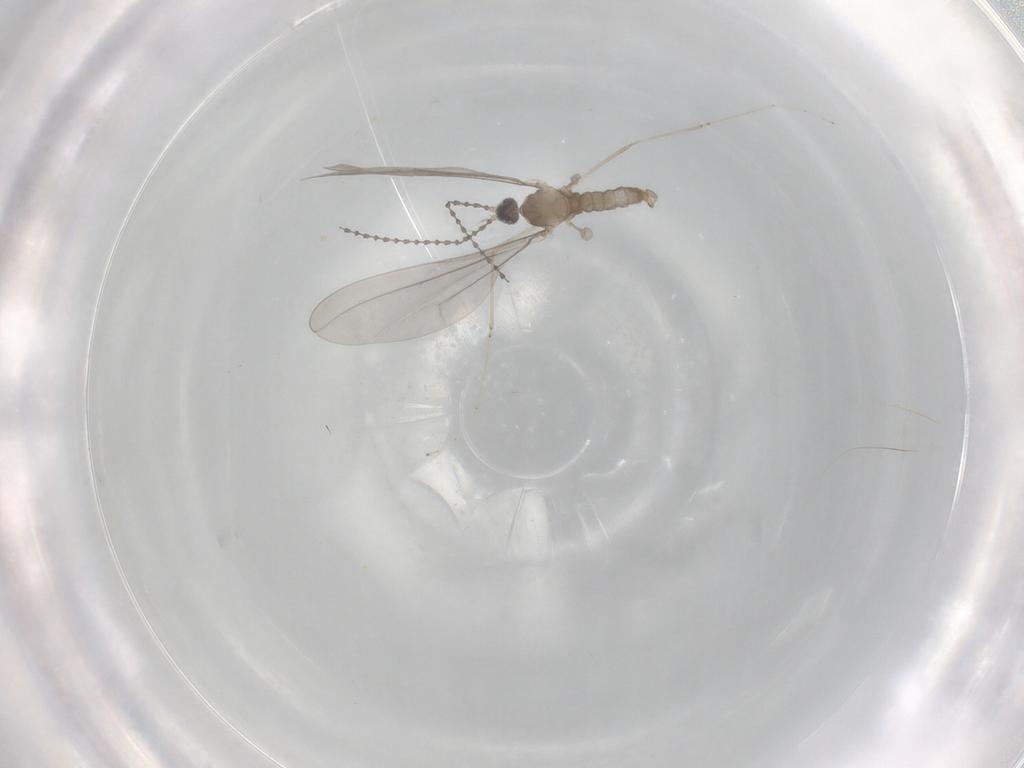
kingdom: Animalia
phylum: Arthropoda
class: Insecta
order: Diptera
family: Cecidomyiidae
